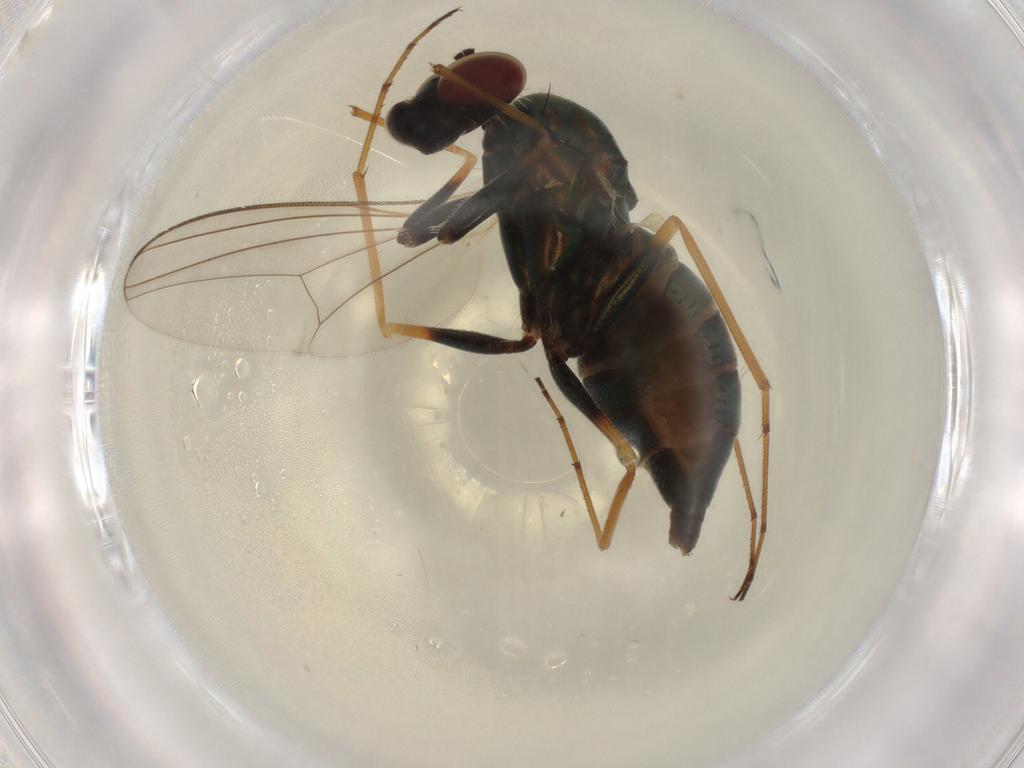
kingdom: Animalia
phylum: Arthropoda
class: Insecta
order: Diptera
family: Dolichopodidae
